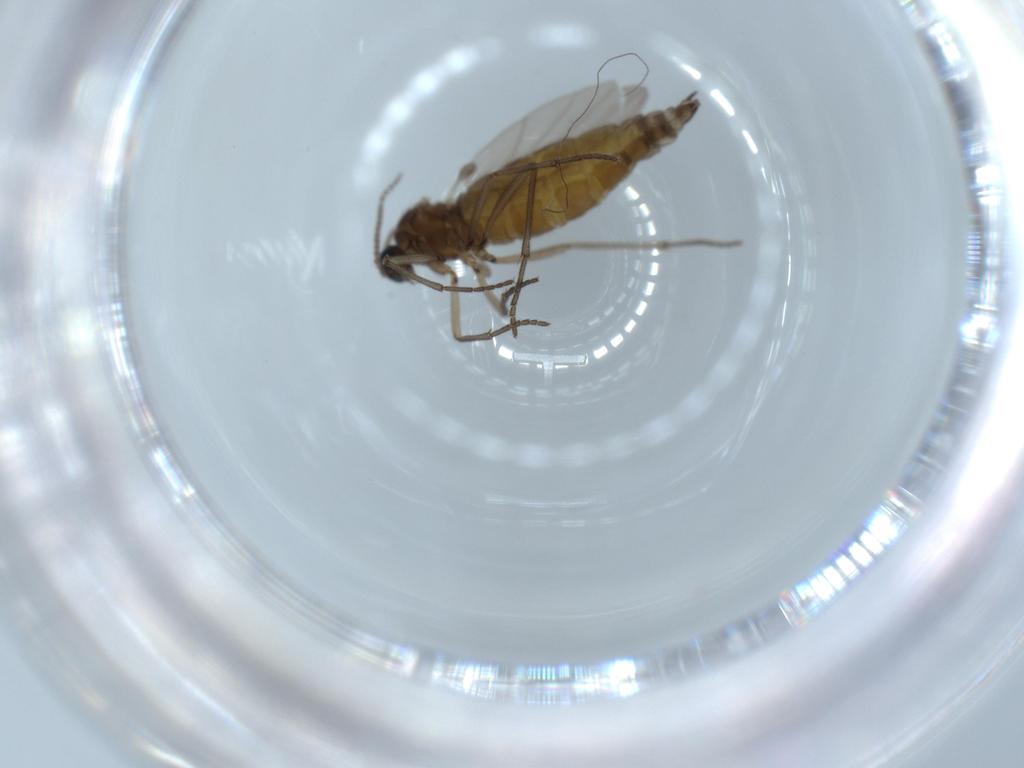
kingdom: Animalia
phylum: Arthropoda
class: Insecta
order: Diptera
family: Sciaridae
